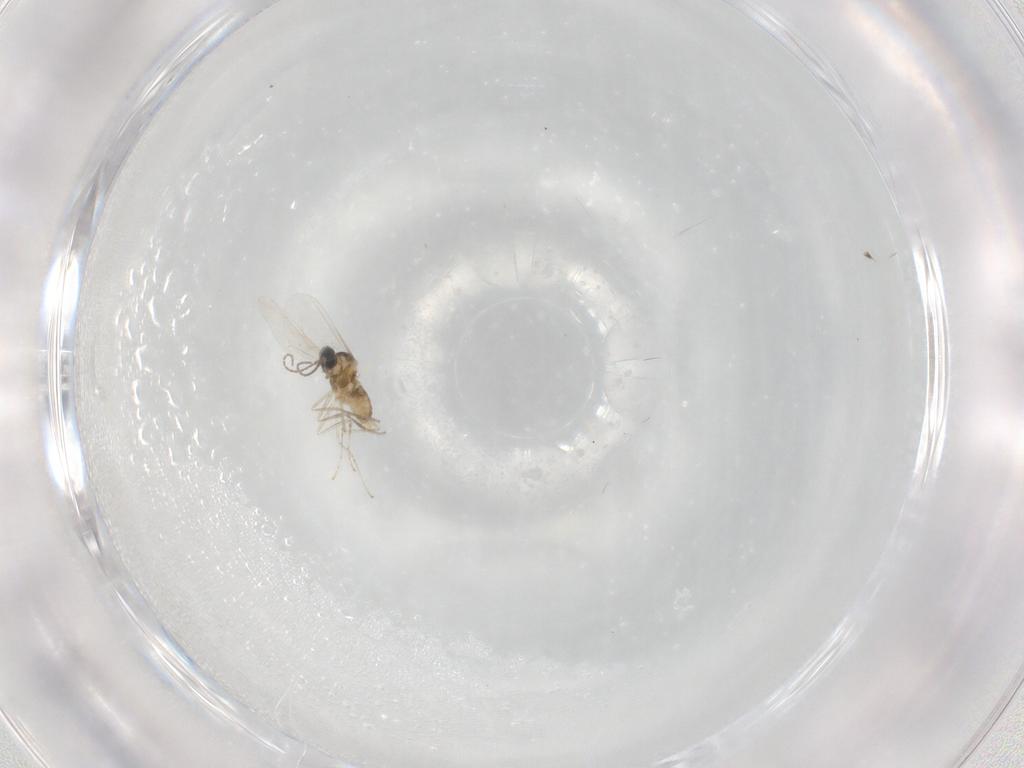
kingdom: Animalia
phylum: Arthropoda
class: Insecta
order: Diptera
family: Cecidomyiidae
